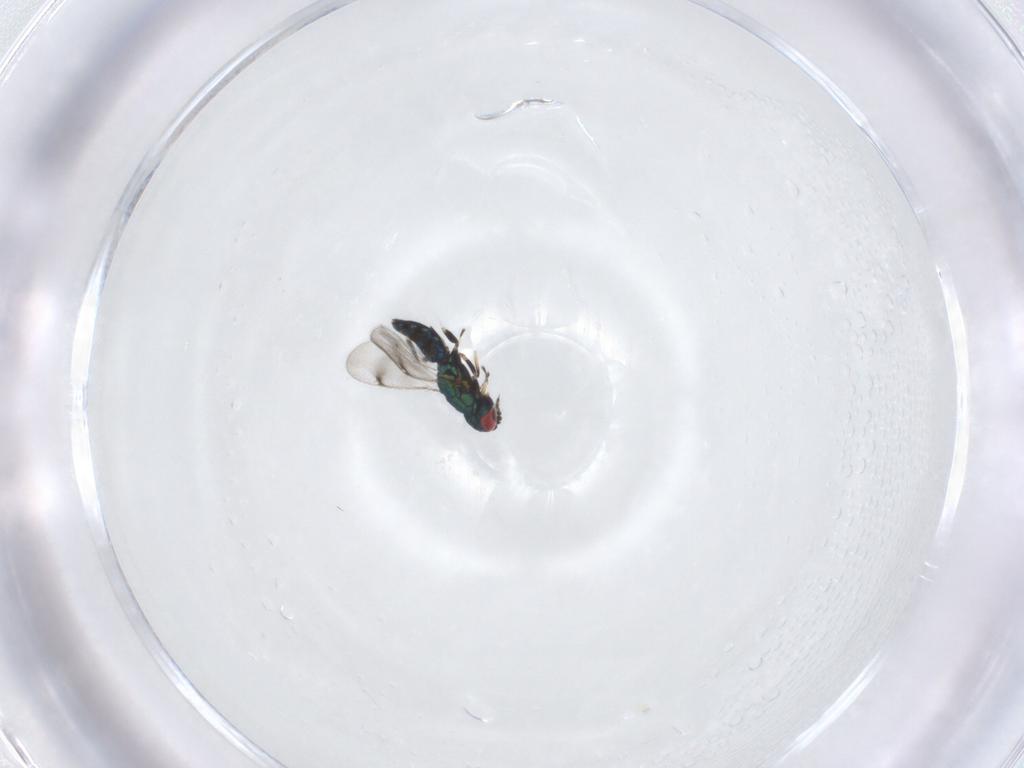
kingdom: Animalia
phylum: Arthropoda
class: Insecta
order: Hymenoptera
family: Eulophidae
